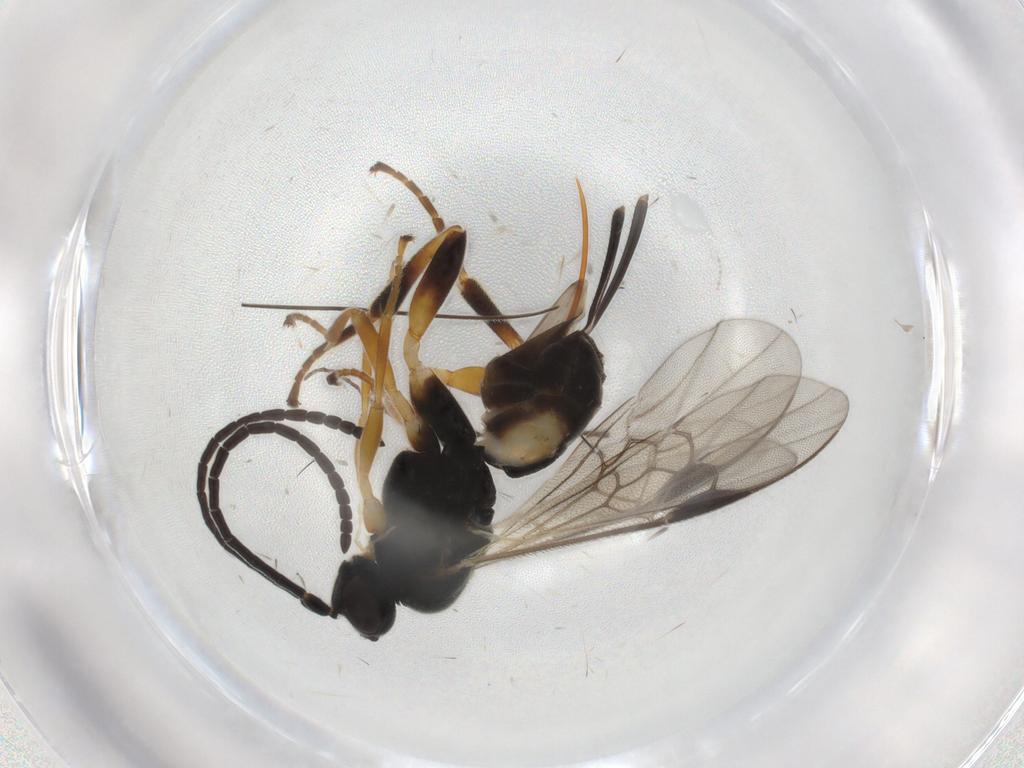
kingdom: Animalia
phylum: Arthropoda
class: Insecta
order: Hymenoptera
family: Braconidae
